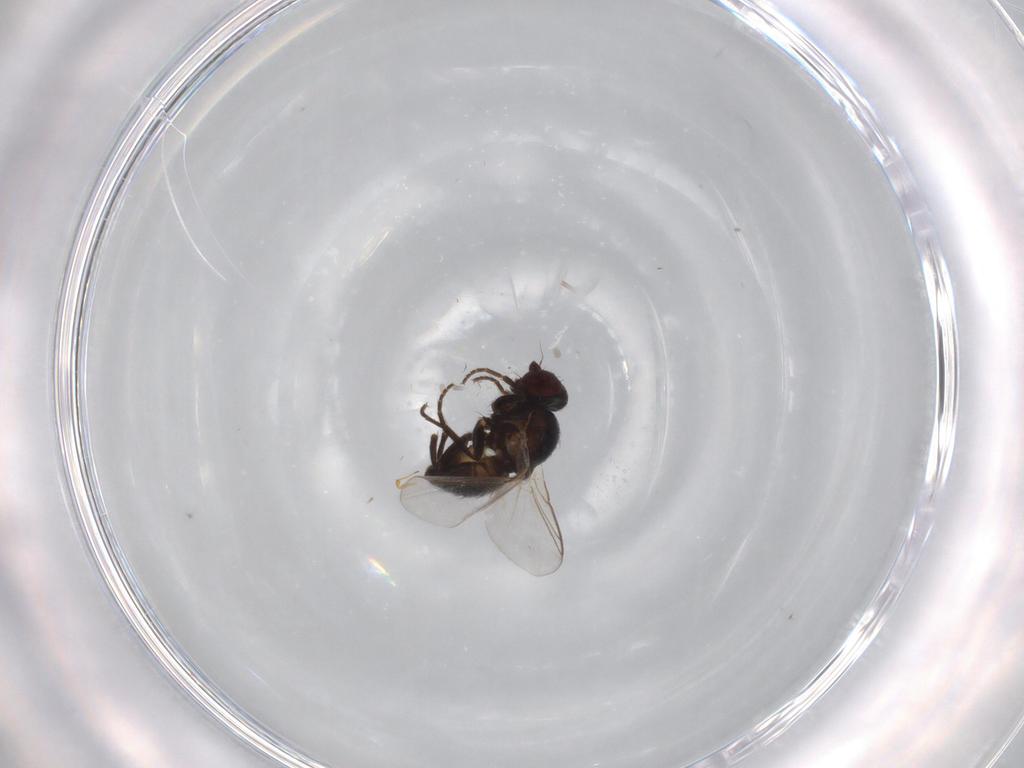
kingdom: Animalia
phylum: Arthropoda
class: Insecta
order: Diptera
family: Agromyzidae
